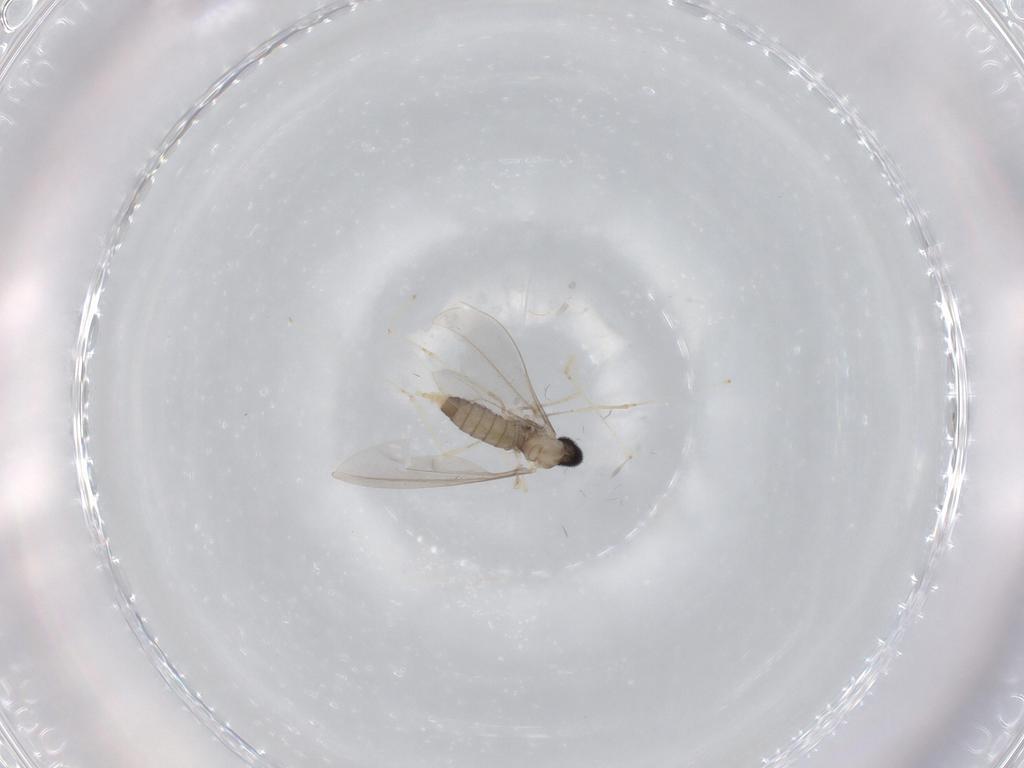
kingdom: Animalia
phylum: Arthropoda
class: Insecta
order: Diptera
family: Cecidomyiidae
